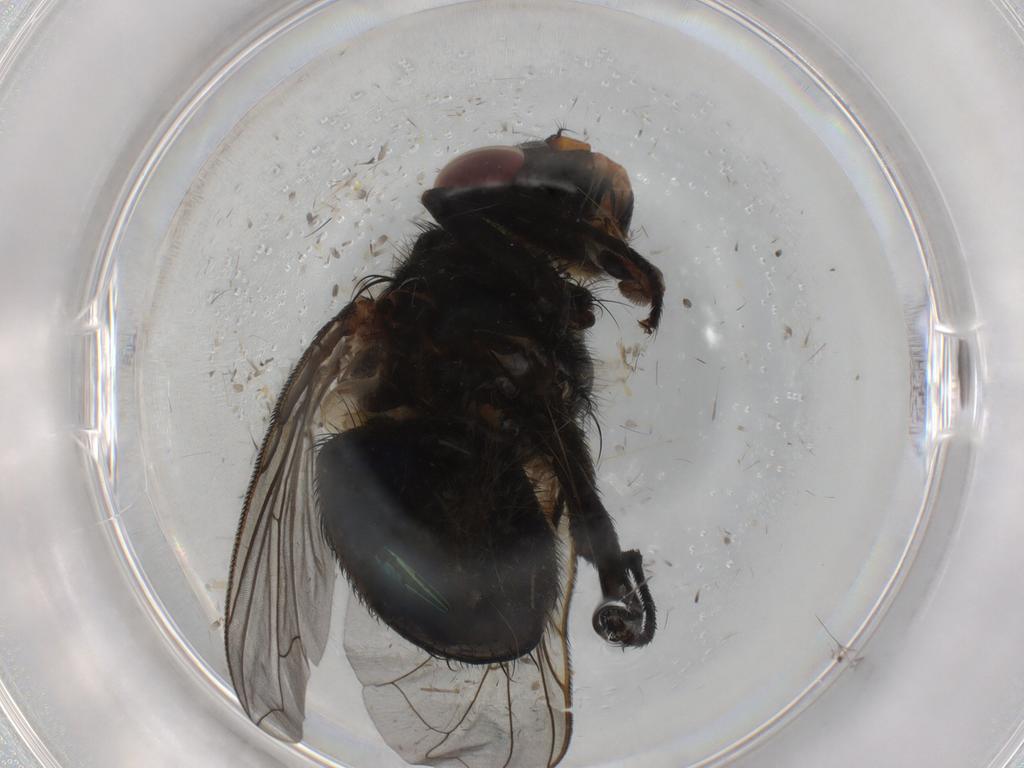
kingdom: Animalia
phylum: Arthropoda
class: Insecta
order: Diptera
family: Calliphoridae
